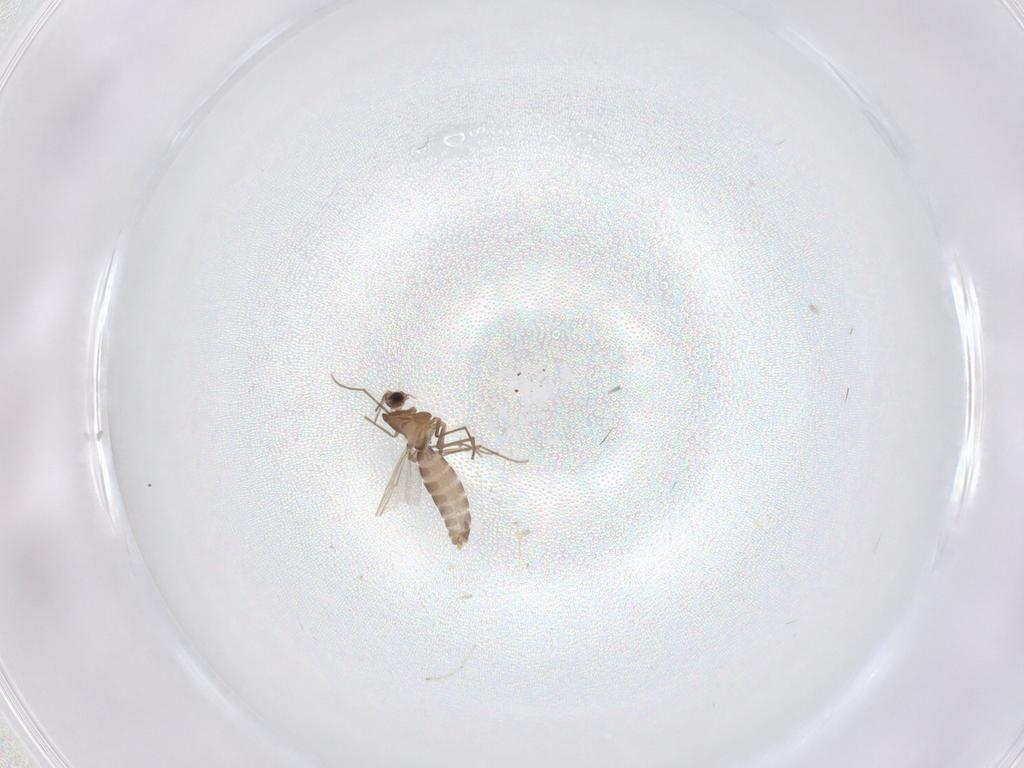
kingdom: Animalia
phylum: Arthropoda
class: Insecta
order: Diptera
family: Chironomidae
